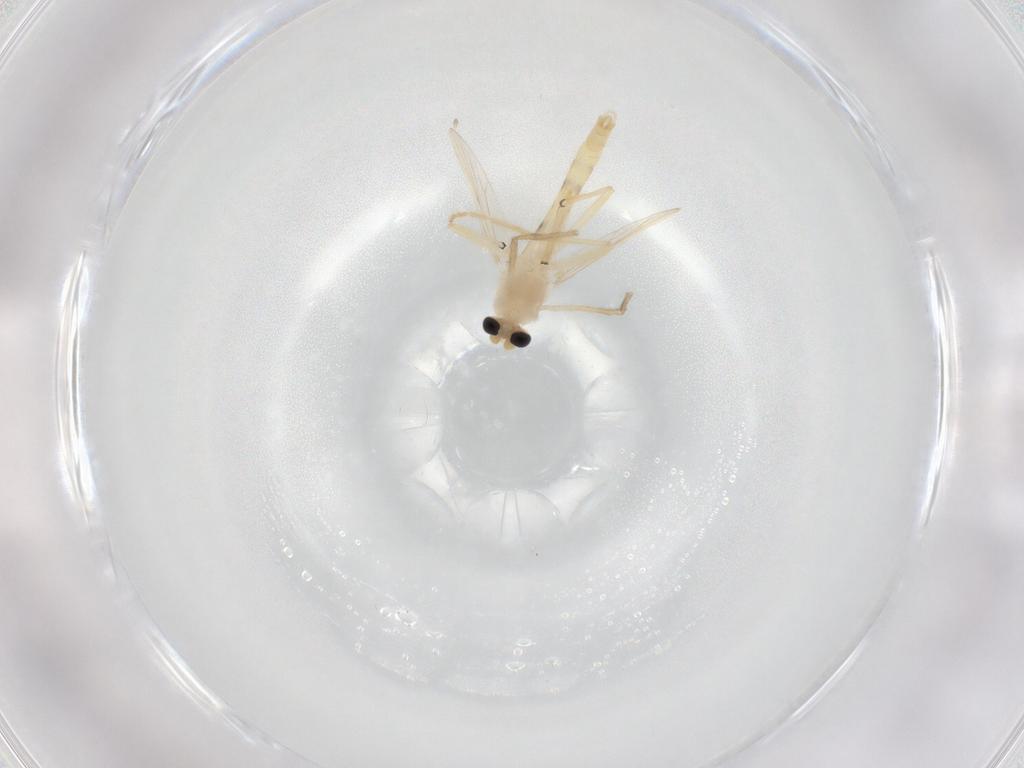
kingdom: Animalia
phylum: Arthropoda
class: Insecta
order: Diptera
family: Chironomidae
